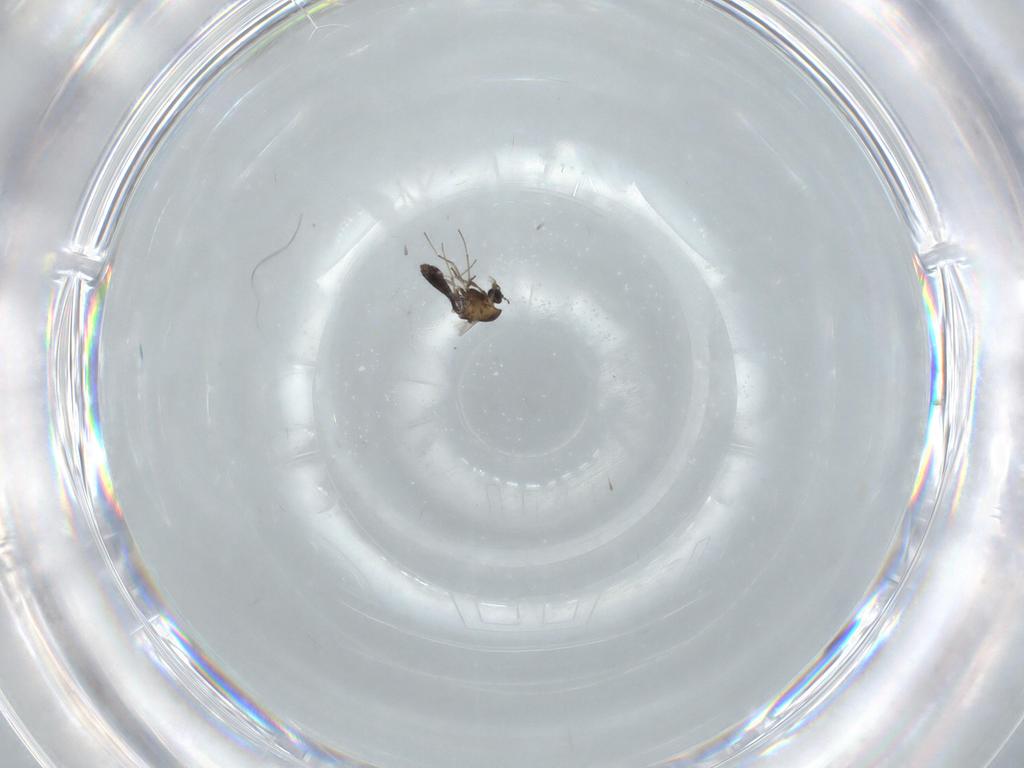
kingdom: Animalia
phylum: Arthropoda
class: Insecta
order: Diptera
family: Chironomidae
